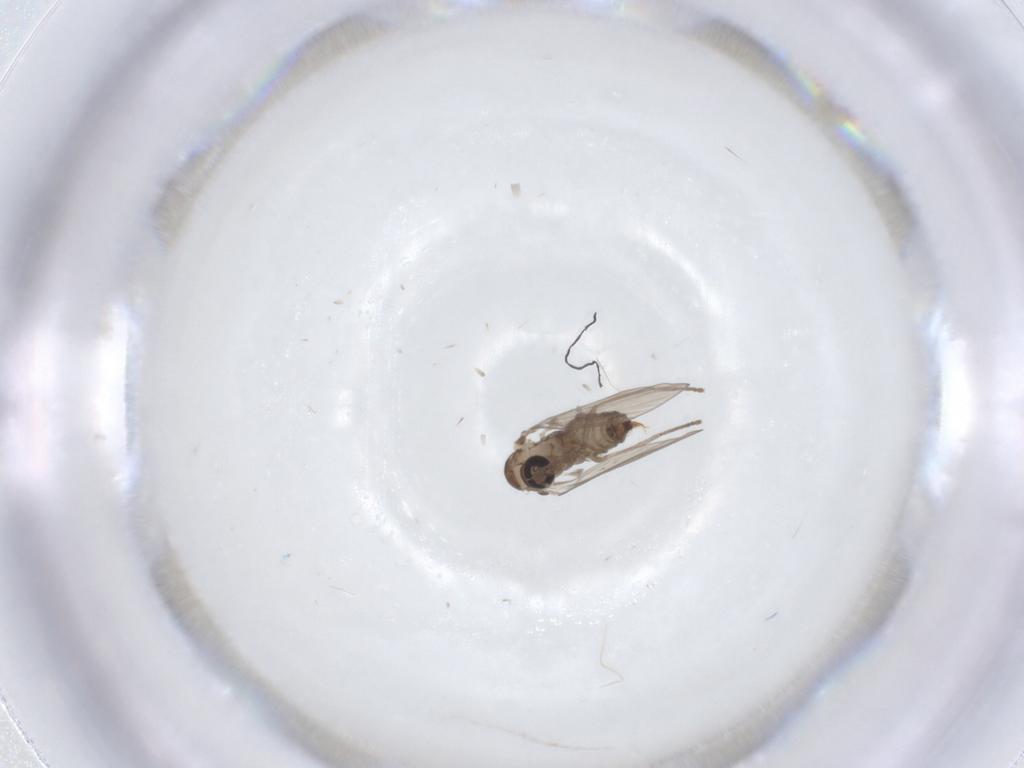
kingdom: Animalia
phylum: Arthropoda
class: Insecta
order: Diptera
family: Psychodidae
